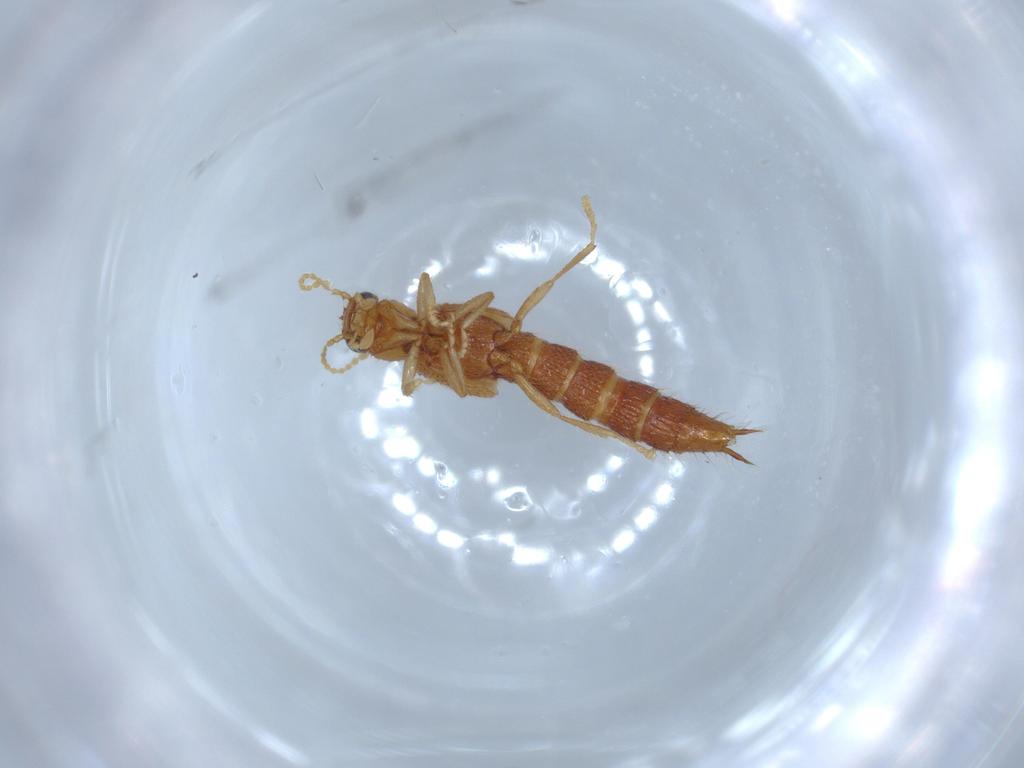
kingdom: Animalia
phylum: Arthropoda
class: Insecta
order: Coleoptera
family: Staphylinidae
